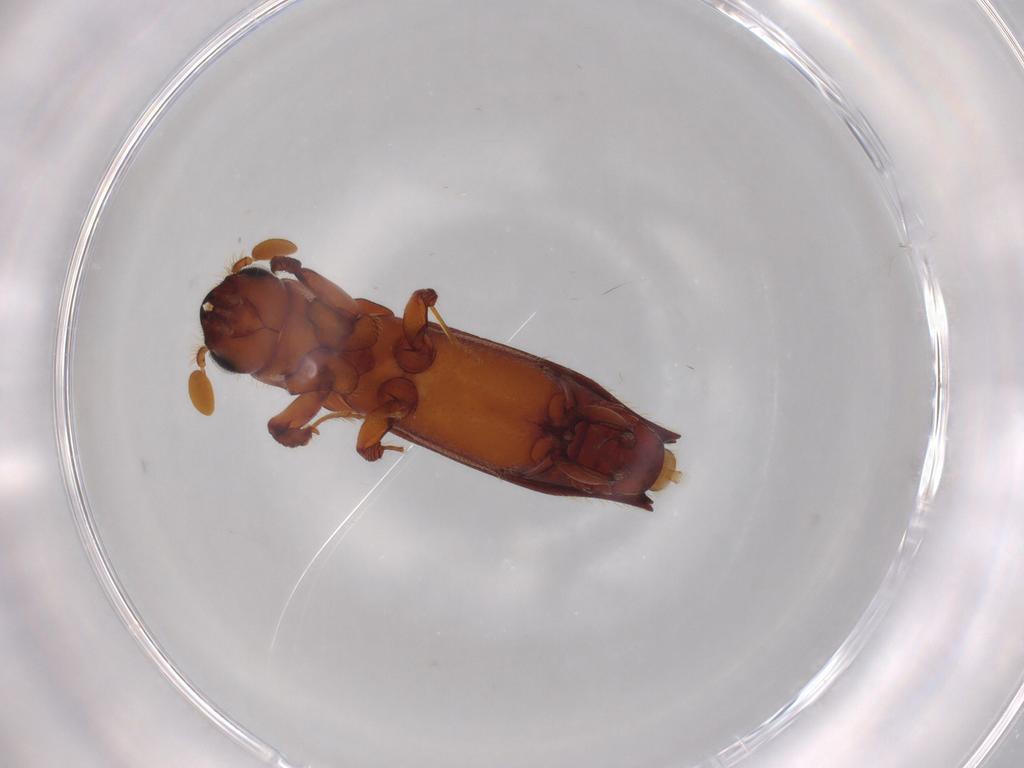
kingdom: Animalia
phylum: Arthropoda
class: Insecta
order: Coleoptera
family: Curculionidae
